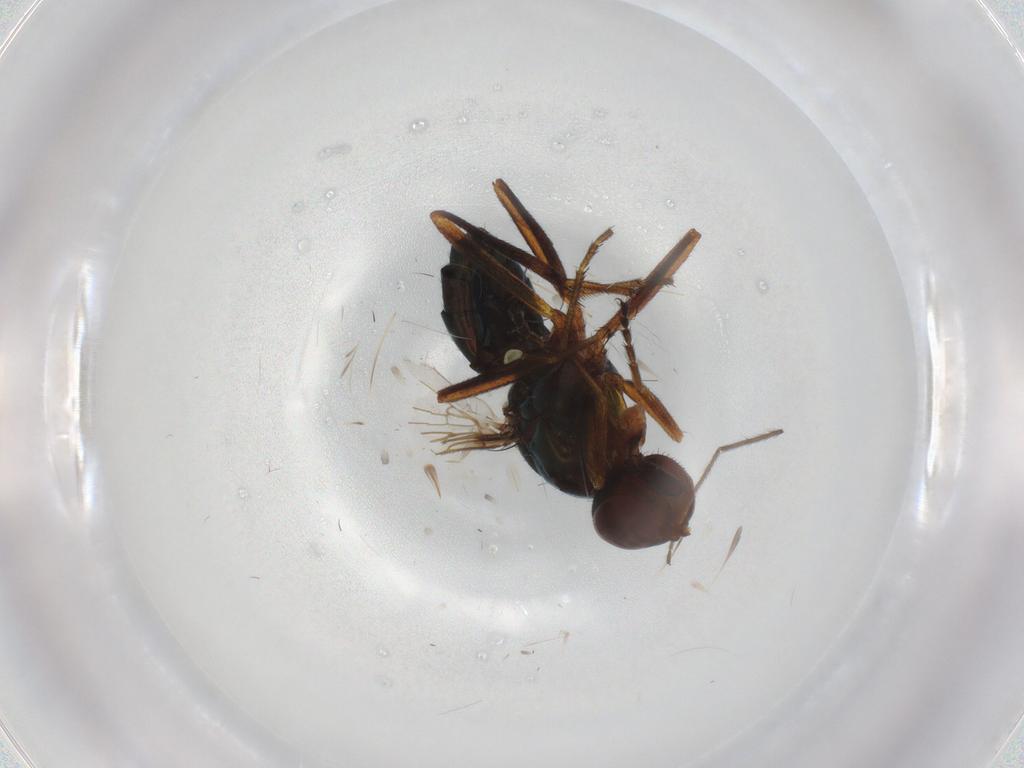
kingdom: Animalia
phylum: Arthropoda
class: Insecta
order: Diptera
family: Sepsidae
